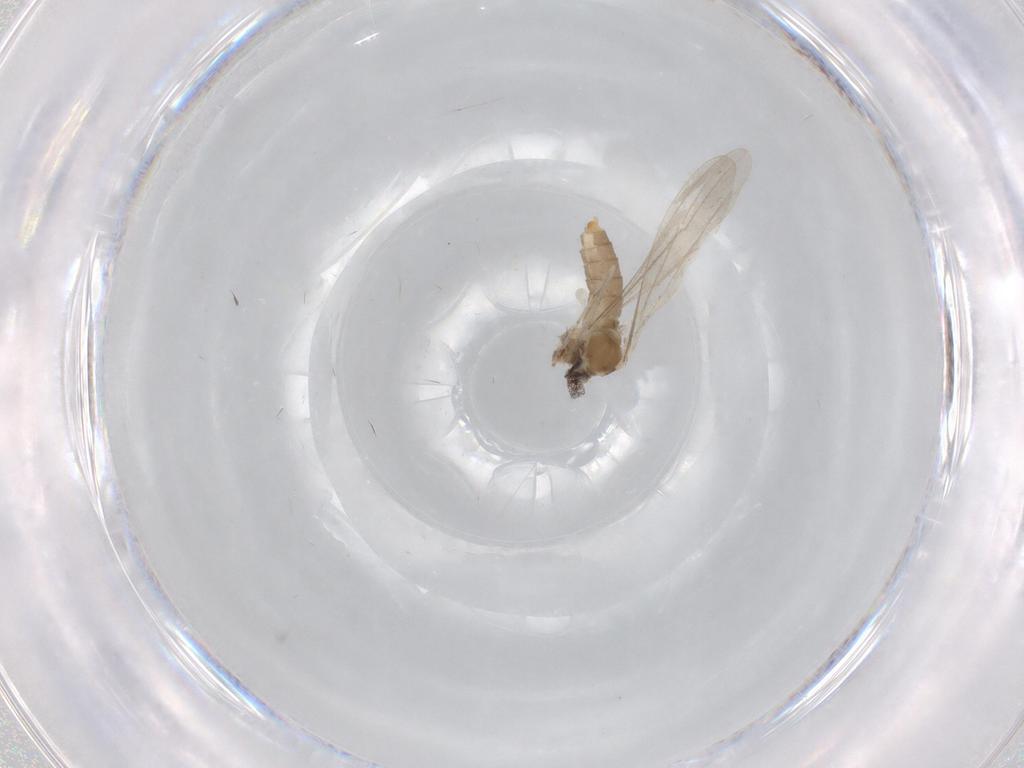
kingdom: Animalia
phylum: Arthropoda
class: Insecta
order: Diptera
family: Cecidomyiidae
